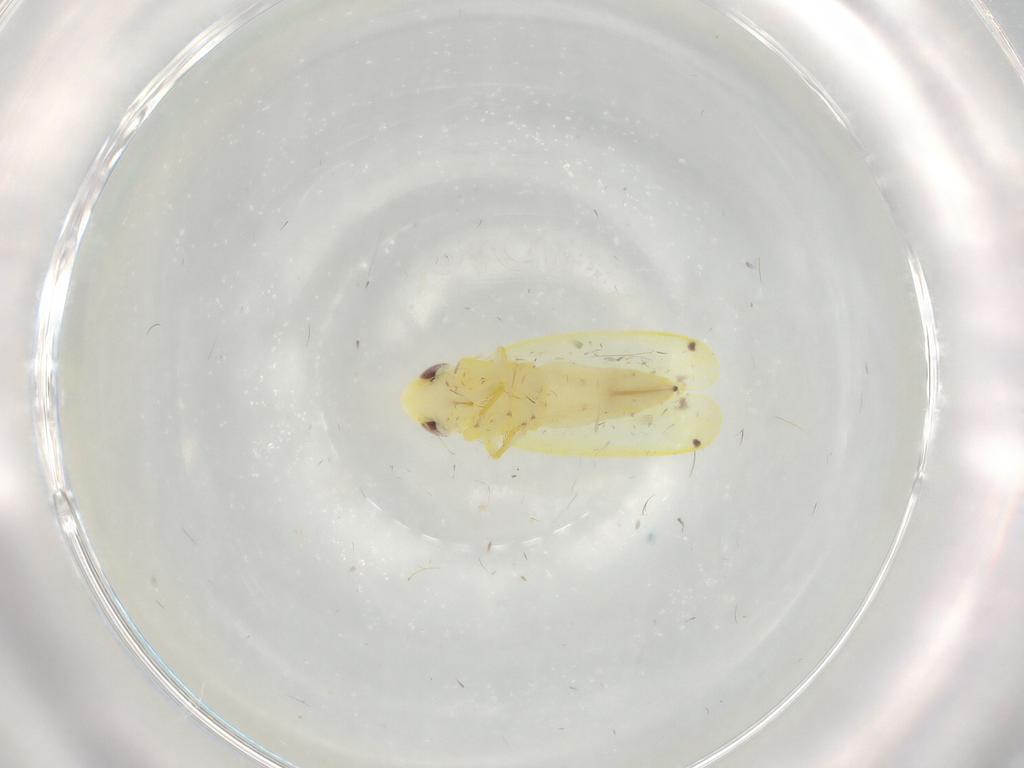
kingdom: Animalia
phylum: Arthropoda
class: Insecta
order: Hemiptera
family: Cicadellidae
